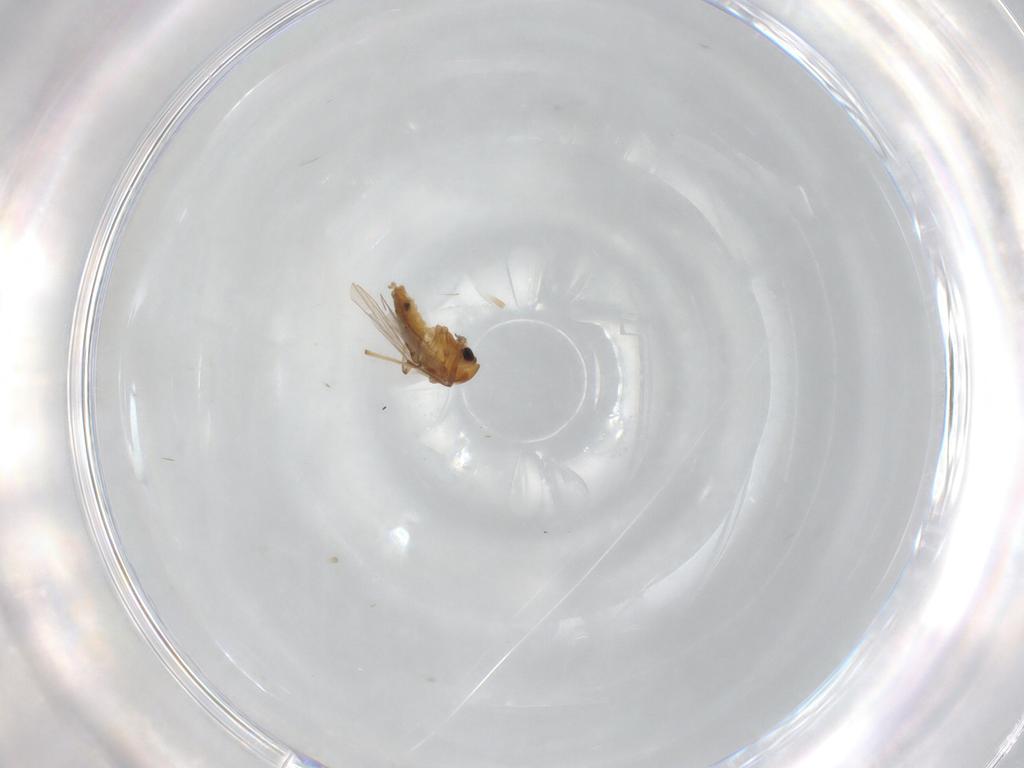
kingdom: Animalia
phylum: Arthropoda
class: Insecta
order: Diptera
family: Chironomidae
